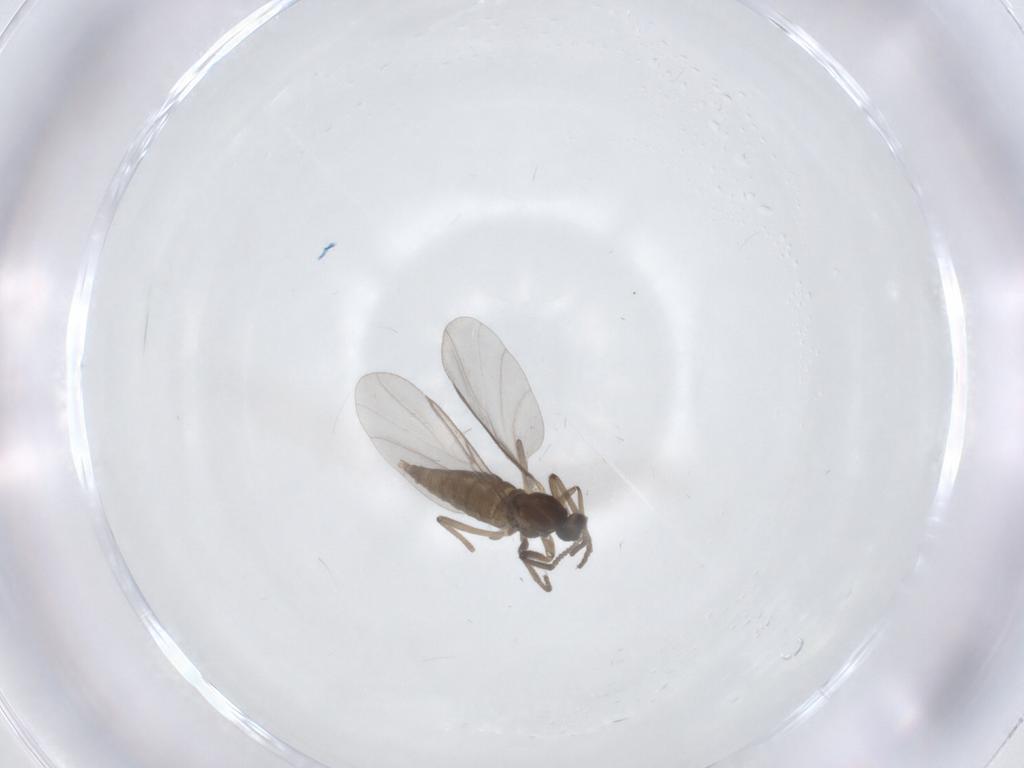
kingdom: Animalia
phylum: Arthropoda
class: Insecta
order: Diptera
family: Cecidomyiidae
